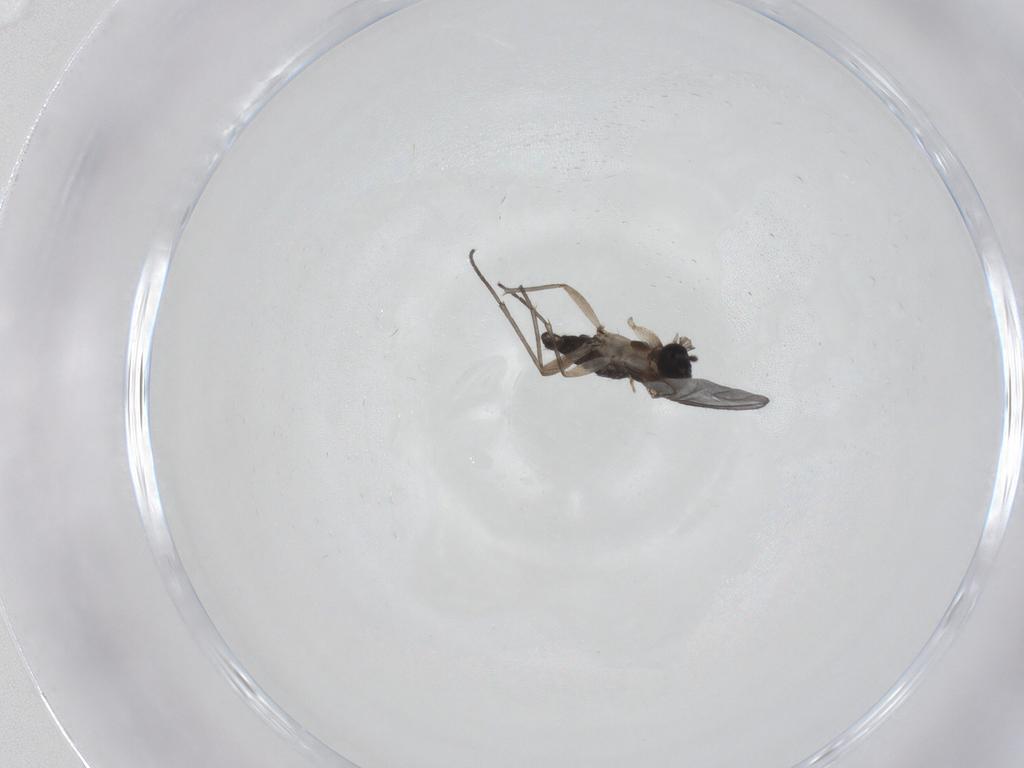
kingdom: Animalia
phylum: Arthropoda
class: Insecta
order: Diptera
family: Sciaridae
